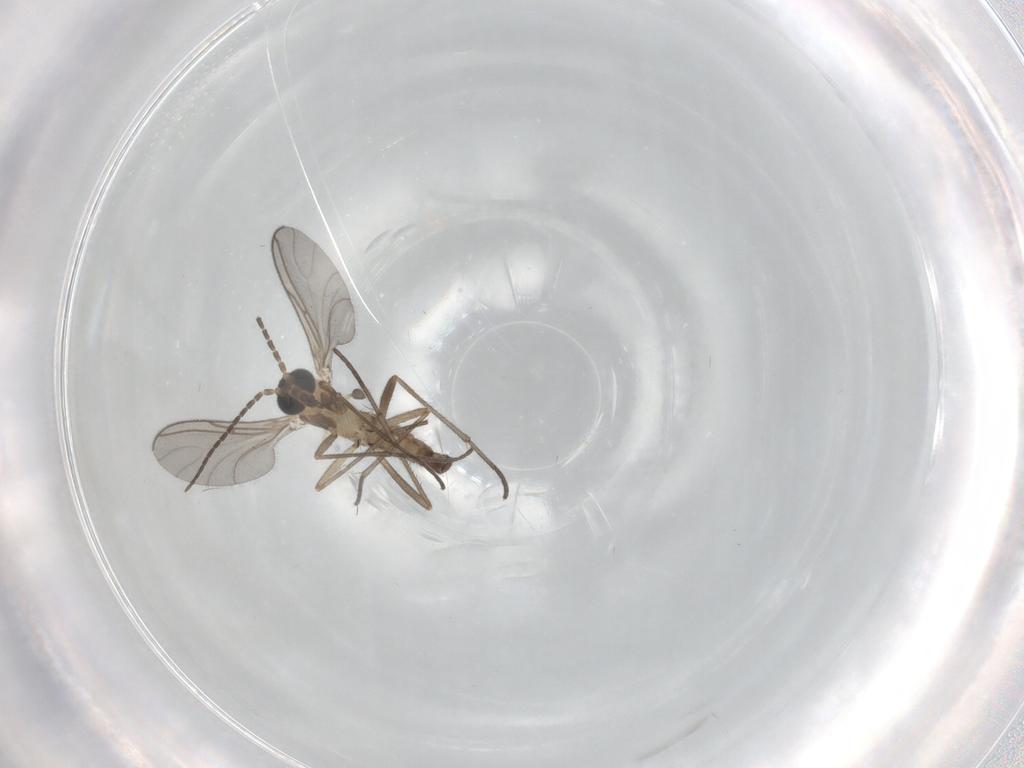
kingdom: Animalia
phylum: Arthropoda
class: Insecta
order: Diptera
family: Sciaridae
